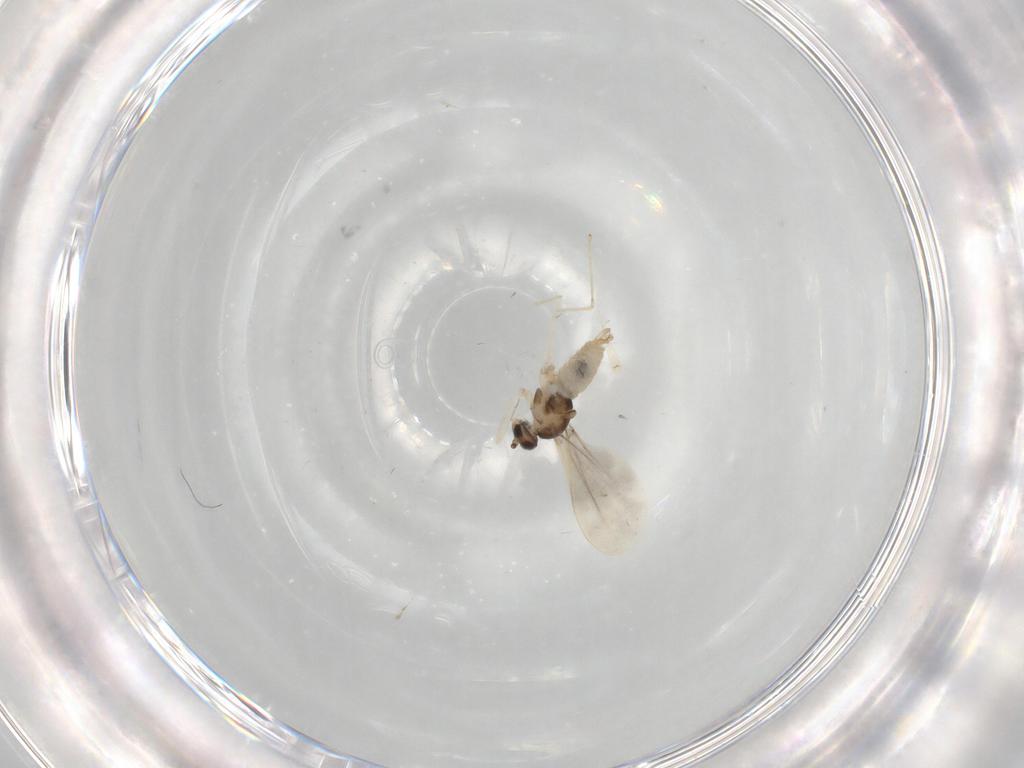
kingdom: Animalia
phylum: Arthropoda
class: Insecta
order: Diptera
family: Cecidomyiidae
